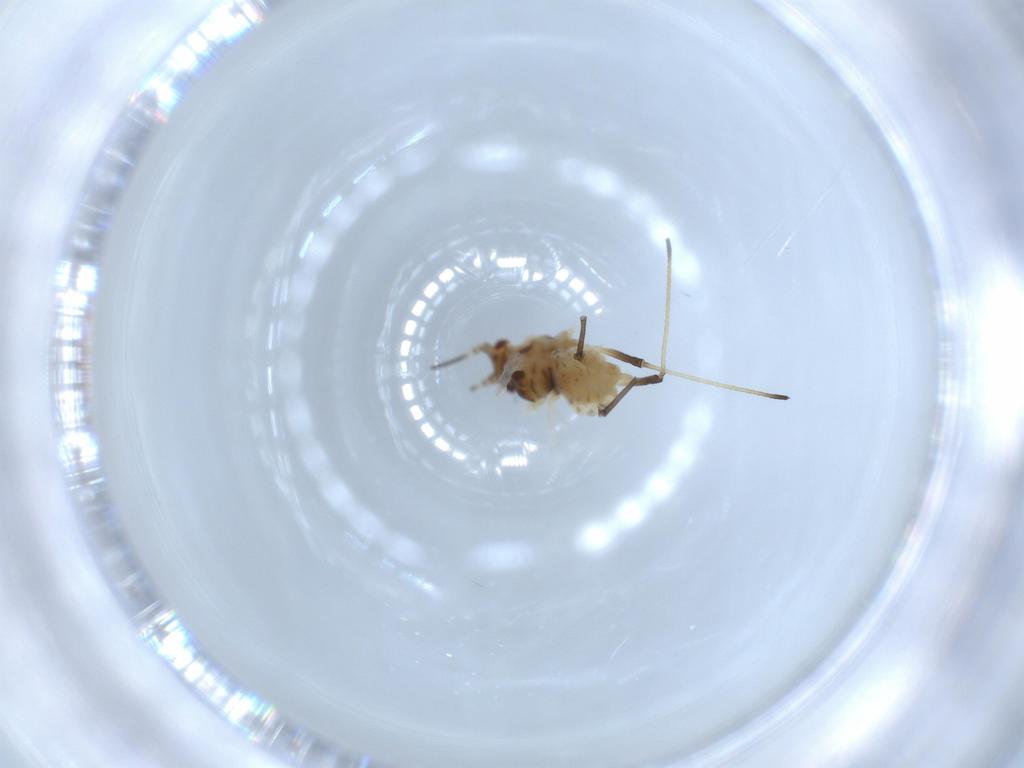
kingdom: Animalia
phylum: Arthropoda
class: Insecta
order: Hemiptera
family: Aphididae
